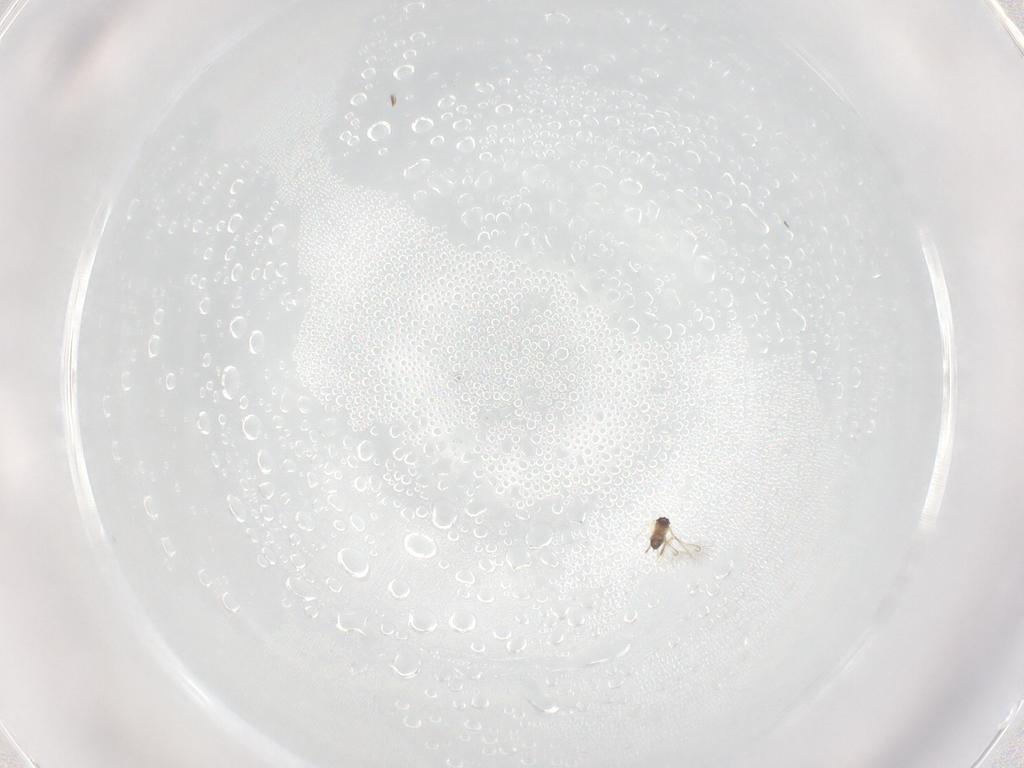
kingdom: Animalia
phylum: Arthropoda
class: Insecta
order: Hymenoptera
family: Mymaridae
